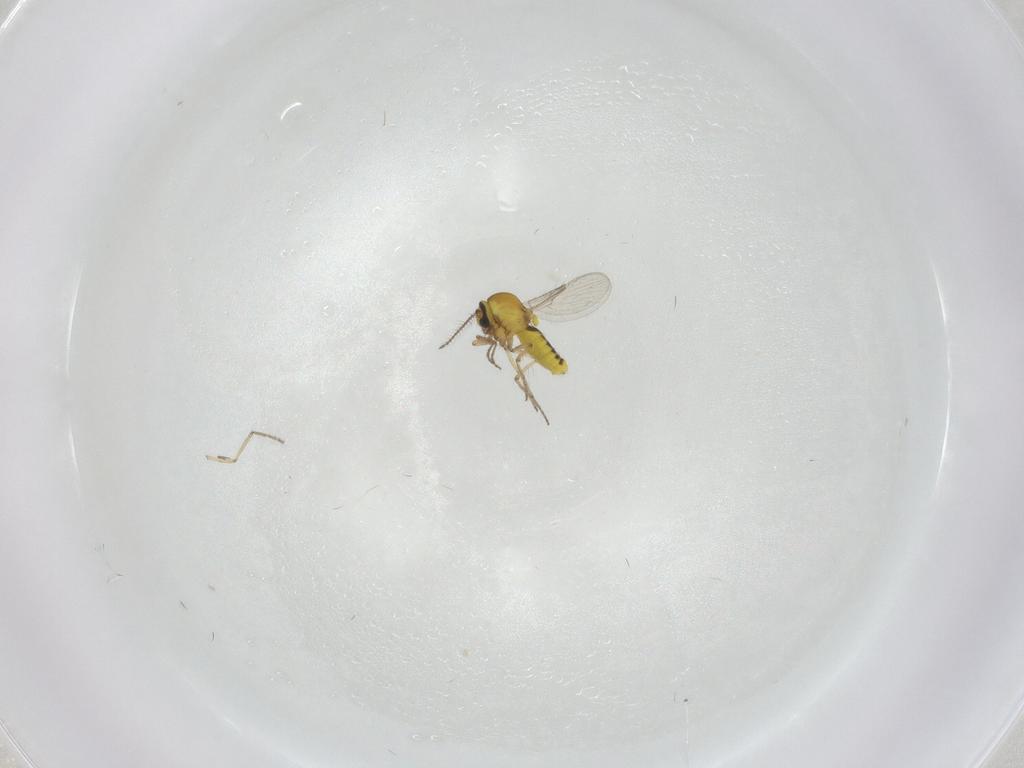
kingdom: Animalia
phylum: Arthropoda
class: Insecta
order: Diptera
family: Ceratopogonidae
